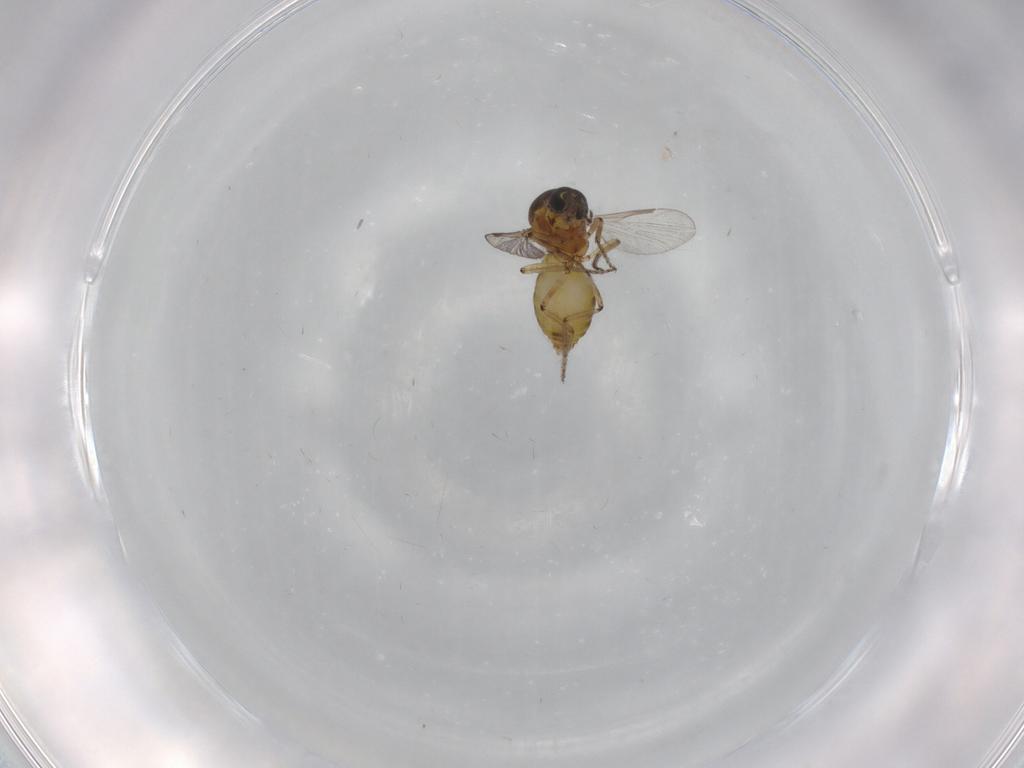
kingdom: Animalia
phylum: Arthropoda
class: Insecta
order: Diptera
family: Ceratopogonidae
